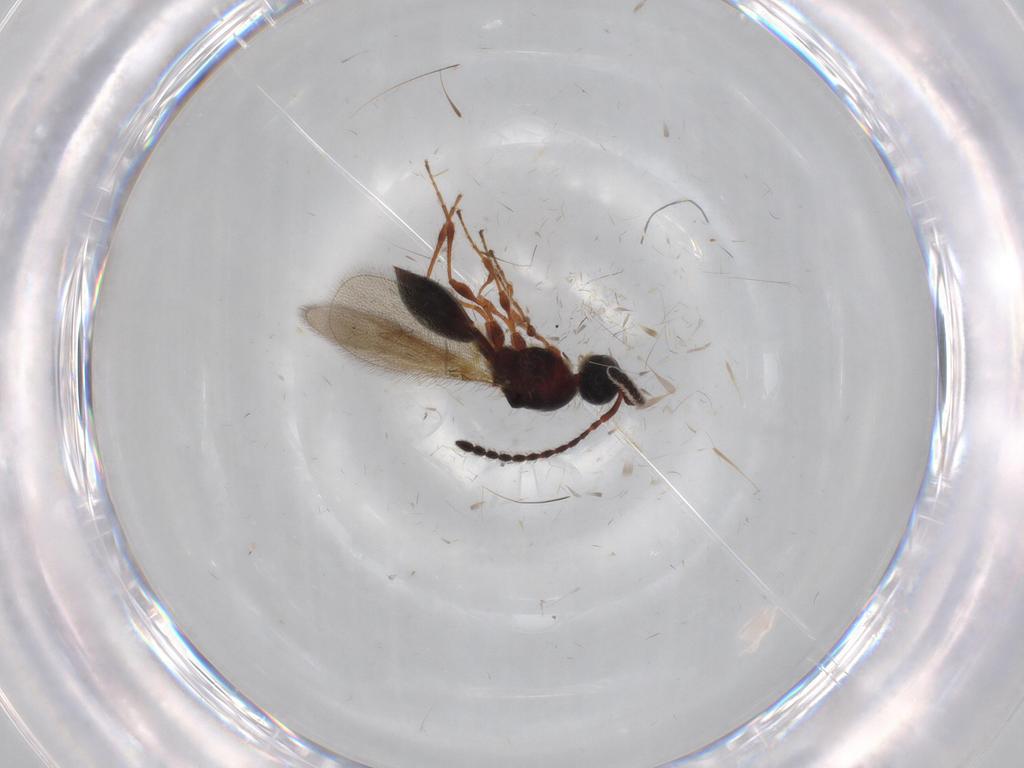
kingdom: Animalia
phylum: Arthropoda
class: Insecta
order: Hymenoptera
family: Diapriidae
